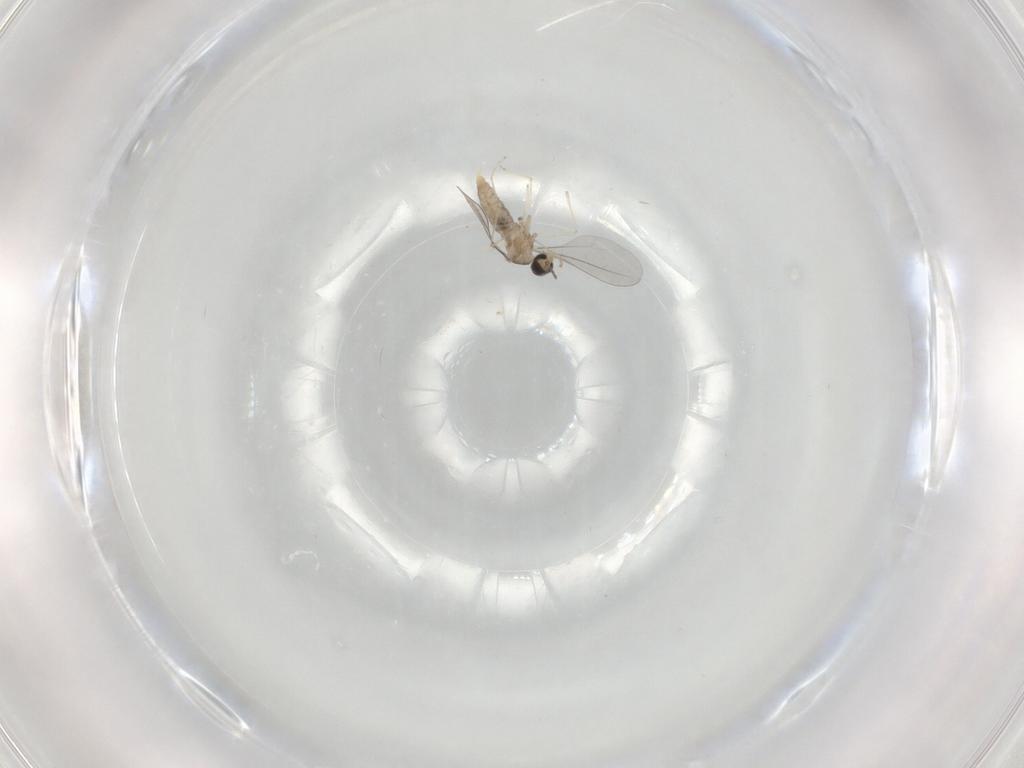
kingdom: Animalia
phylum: Arthropoda
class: Insecta
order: Diptera
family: Cecidomyiidae
